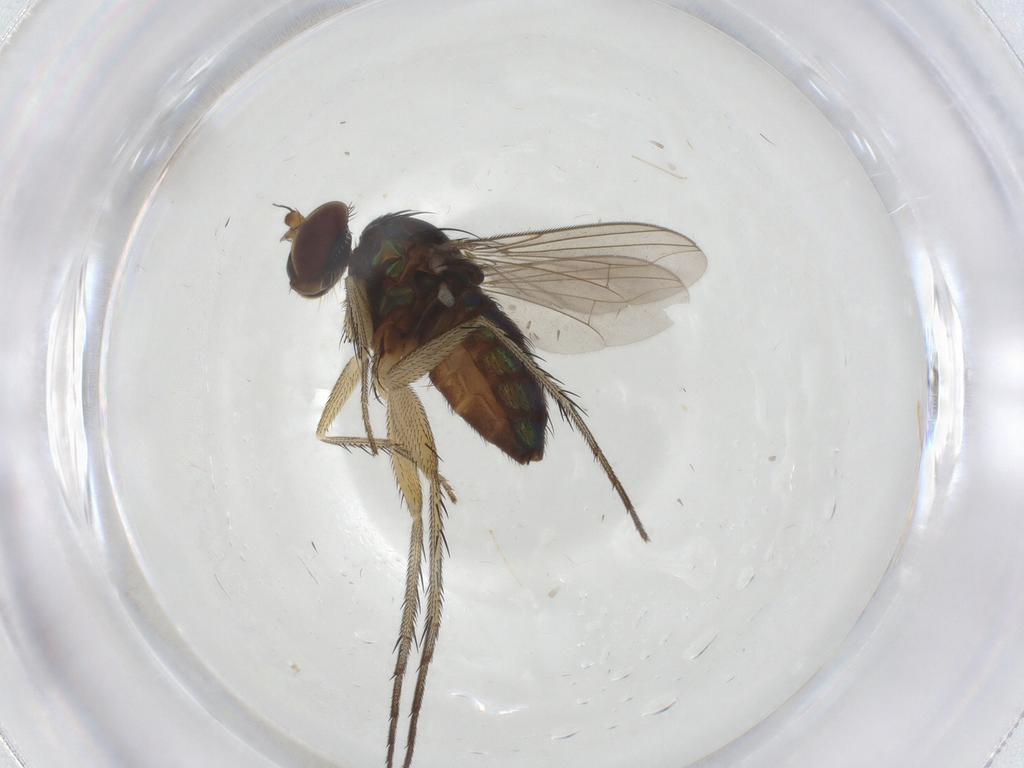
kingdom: Animalia
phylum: Arthropoda
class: Insecta
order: Diptera
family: Dolichopodidae
